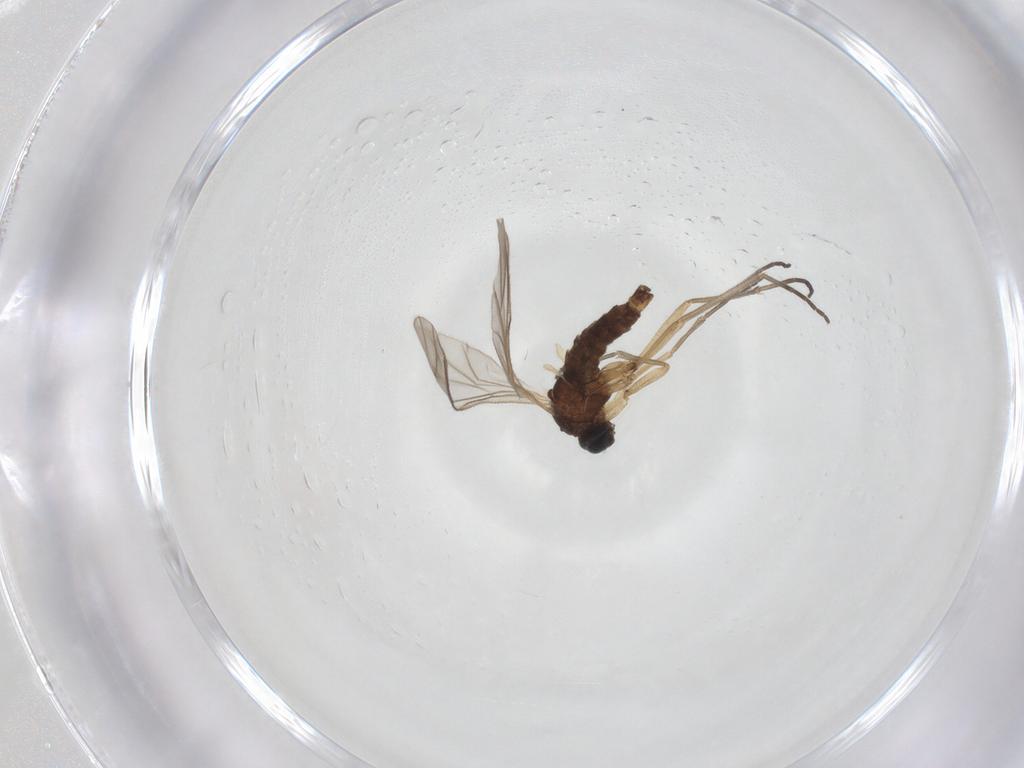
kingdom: Animalia
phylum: Arthropoda
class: Insecta
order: Diptera
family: Sciaridae
